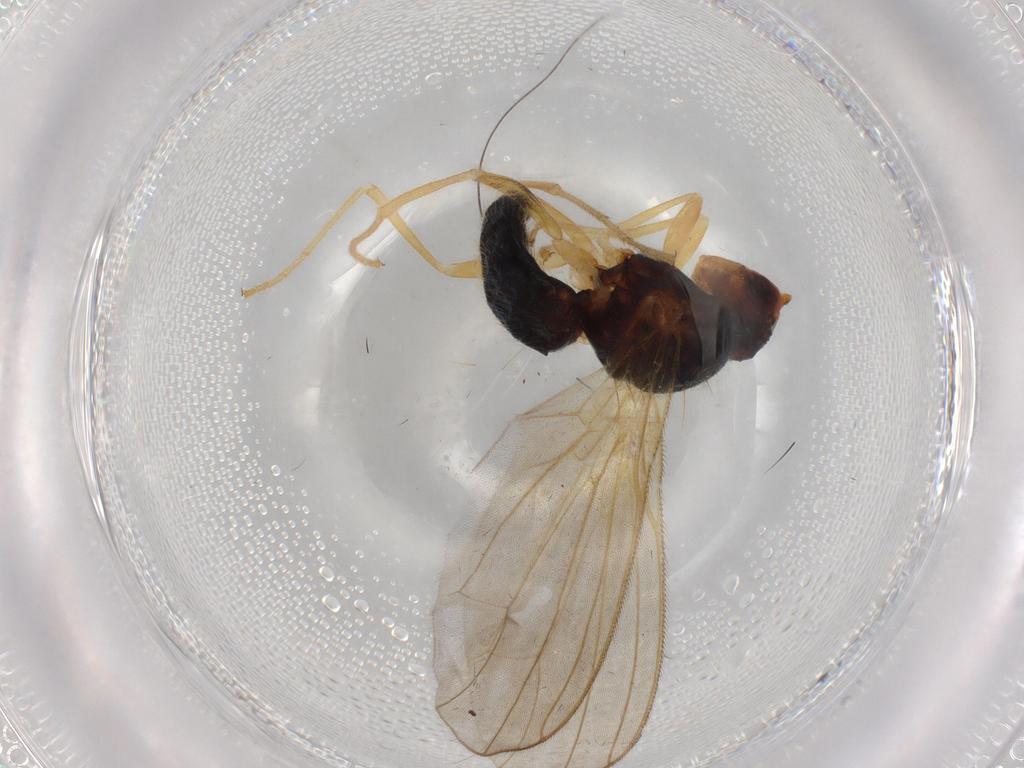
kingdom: Animalia
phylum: Arthropoda
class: Insecta
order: Diptera
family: Psilidae
